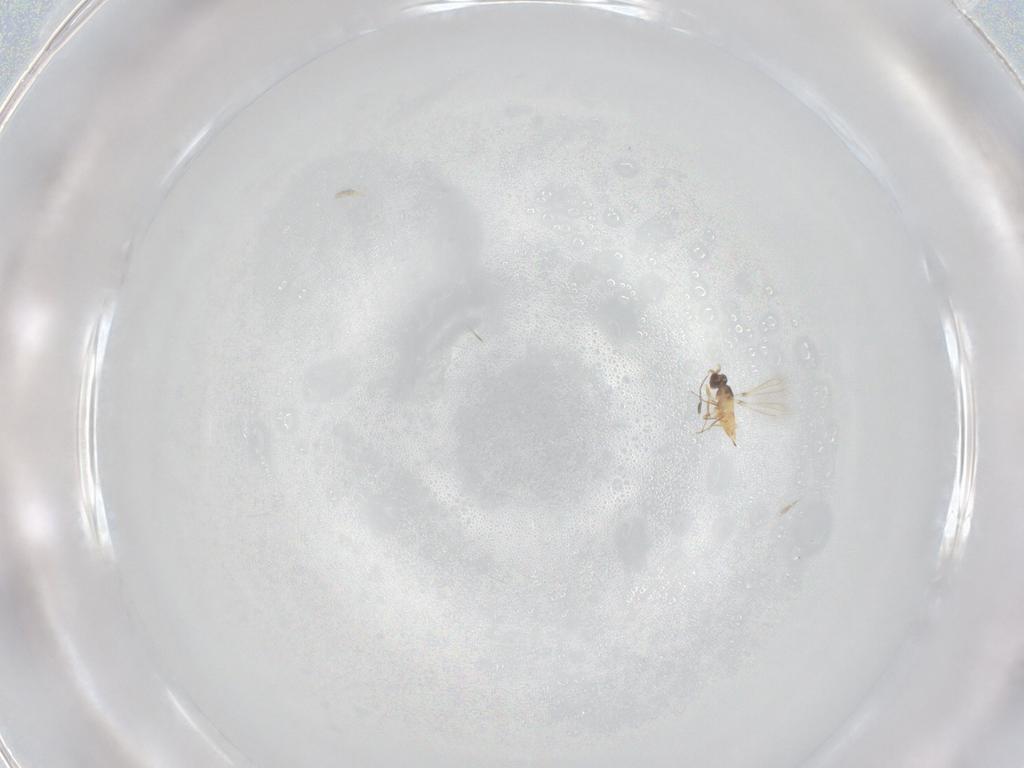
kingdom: Animalia
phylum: Arthropoda
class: Insecta
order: Hymenoptera
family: Mymaridae
